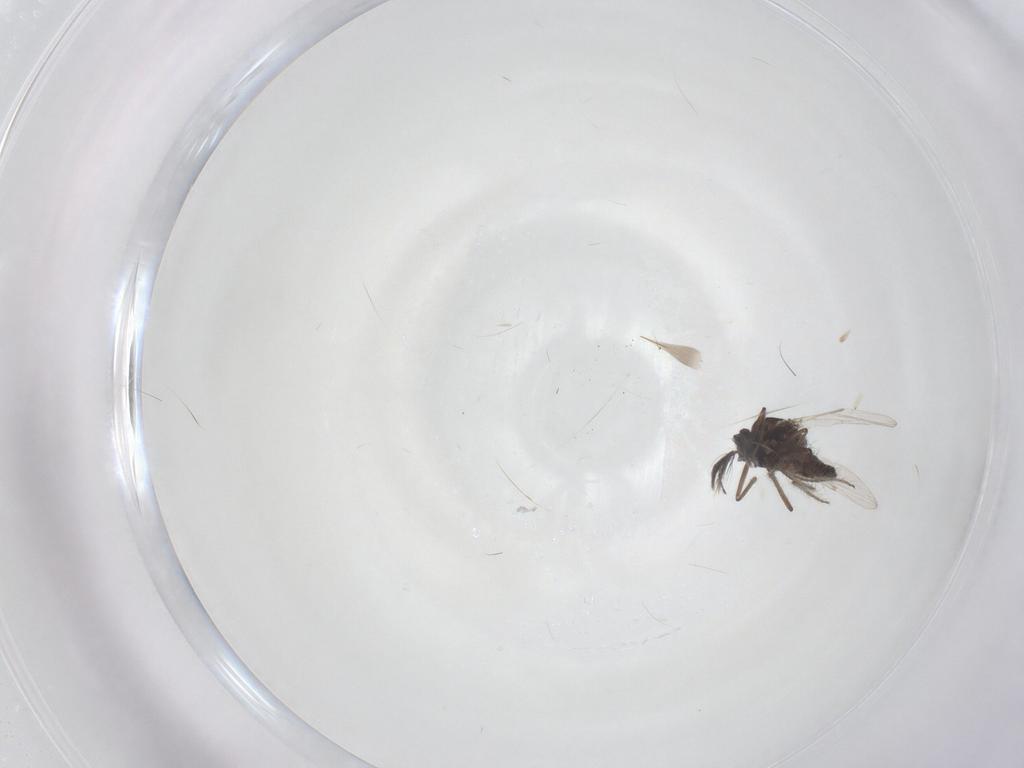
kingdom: Animalia
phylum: Arthropoda
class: Insecta
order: Diptera
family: Ceratopogonidae
